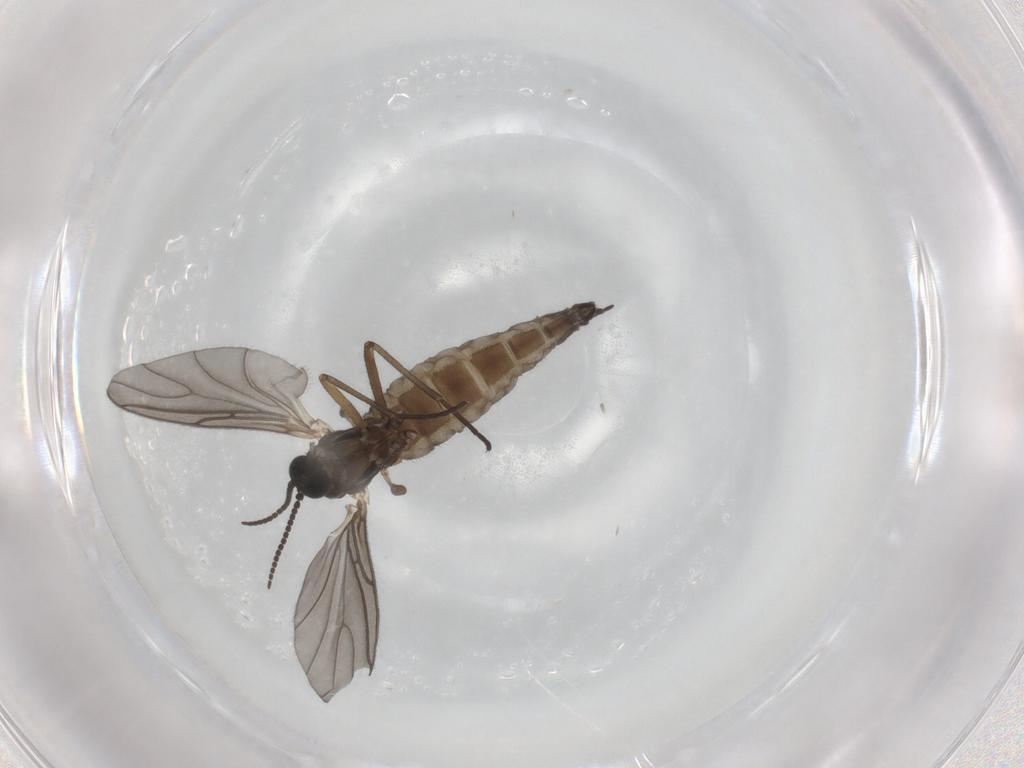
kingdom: Animalia
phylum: Arthropoda
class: Insecta
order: Diptera
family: Sciaridae
